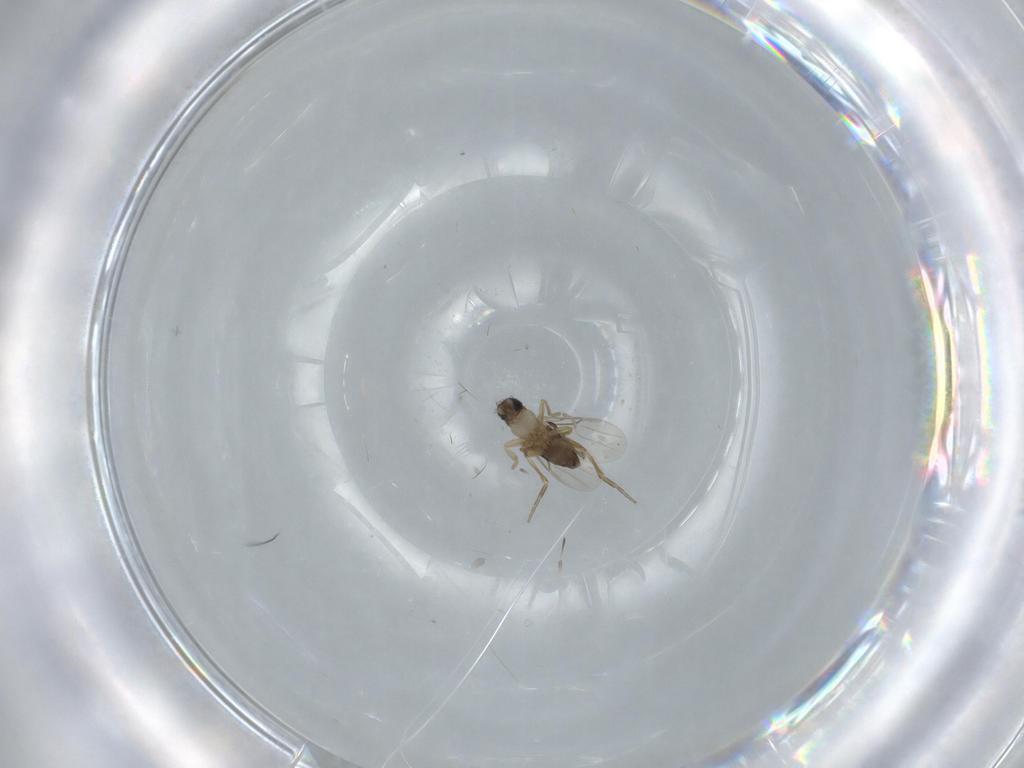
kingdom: Animalia
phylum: Arthropoda
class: Insecta
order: Diptera
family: Phoridae
